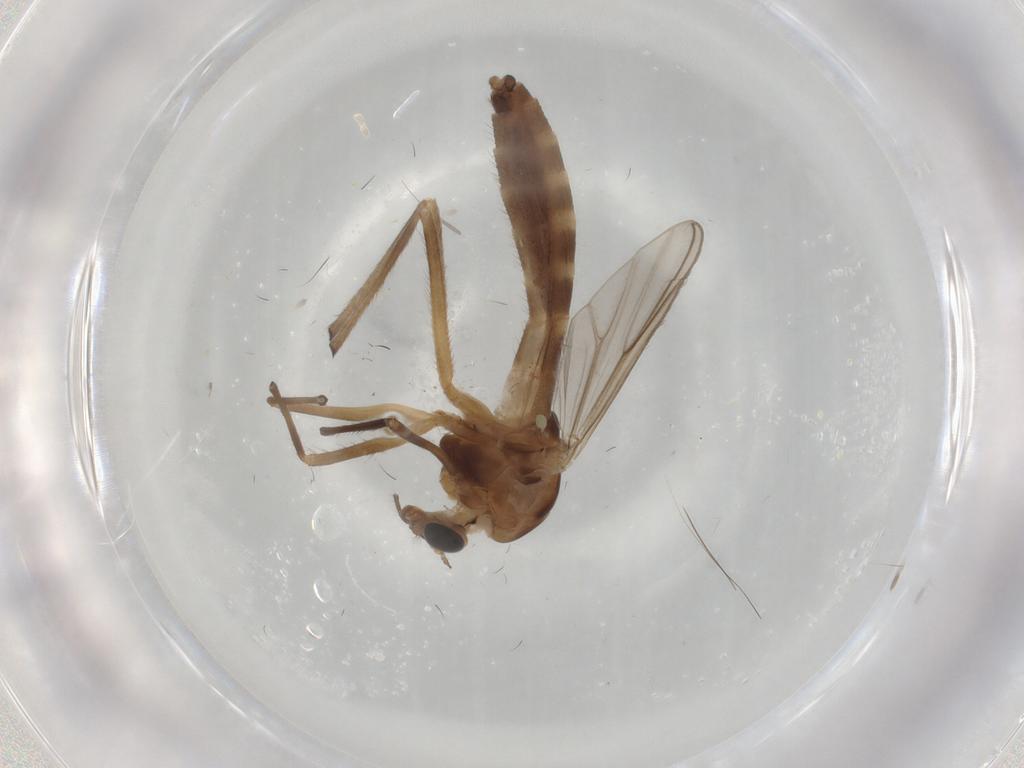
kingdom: Animalia
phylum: Arthropoda
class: Insecta
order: Diptera
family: Chironomidae
